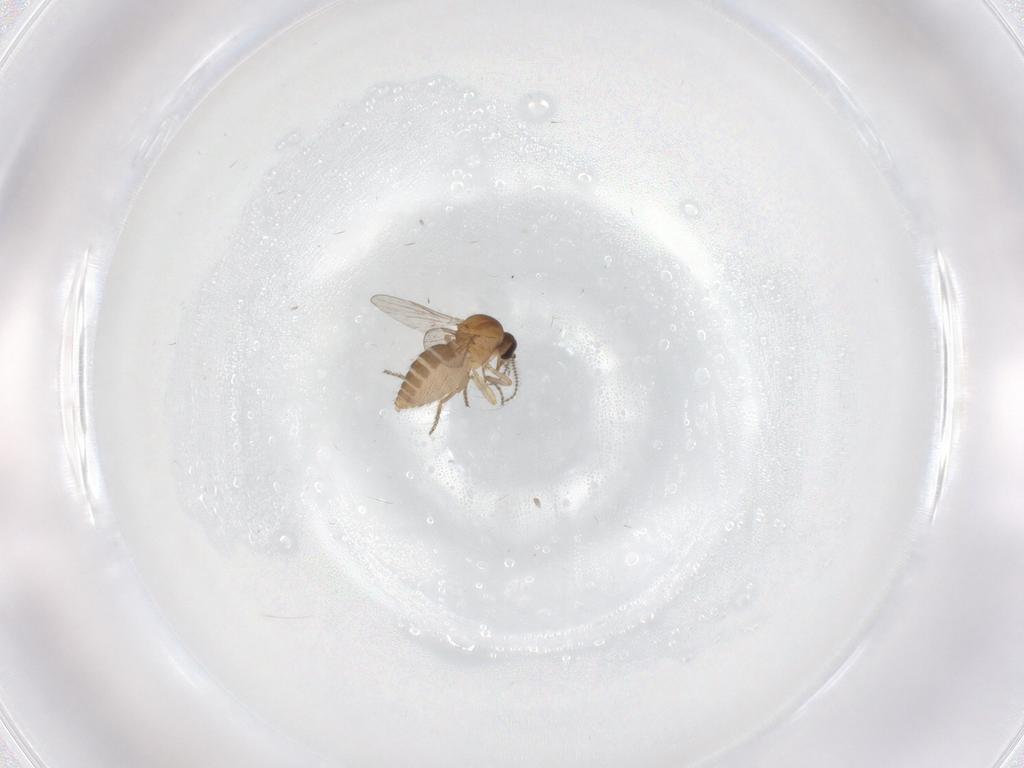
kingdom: Animalia
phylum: Arthropoda
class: Insecta
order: Diptera
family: Ceratopogonidae
